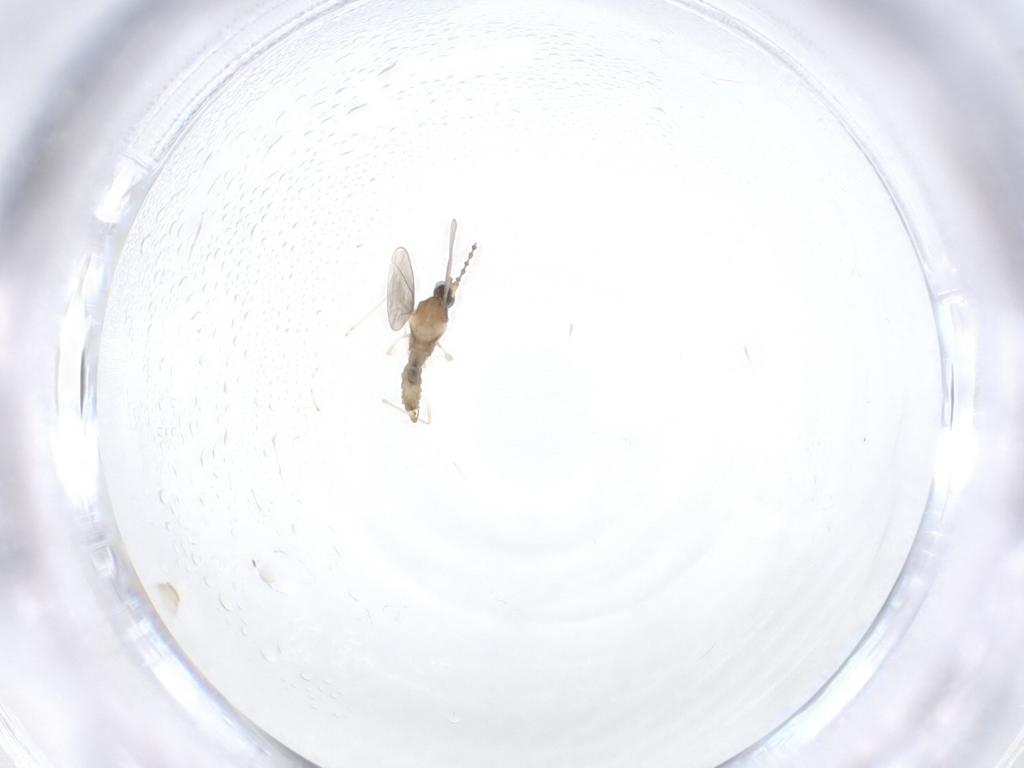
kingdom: Animalia
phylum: Arthropoda
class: Insecta
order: Diptera
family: Cecidomyiidae
